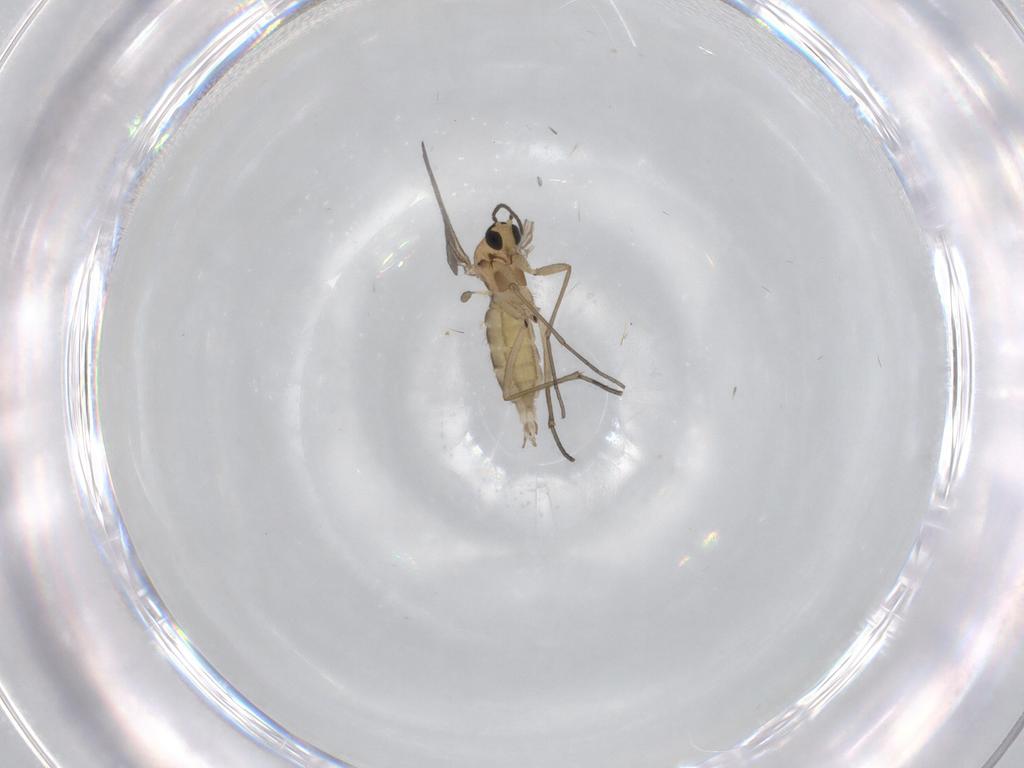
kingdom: Animalia
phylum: Arthropoda
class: Insecta
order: Diptera
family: Sciaridae
